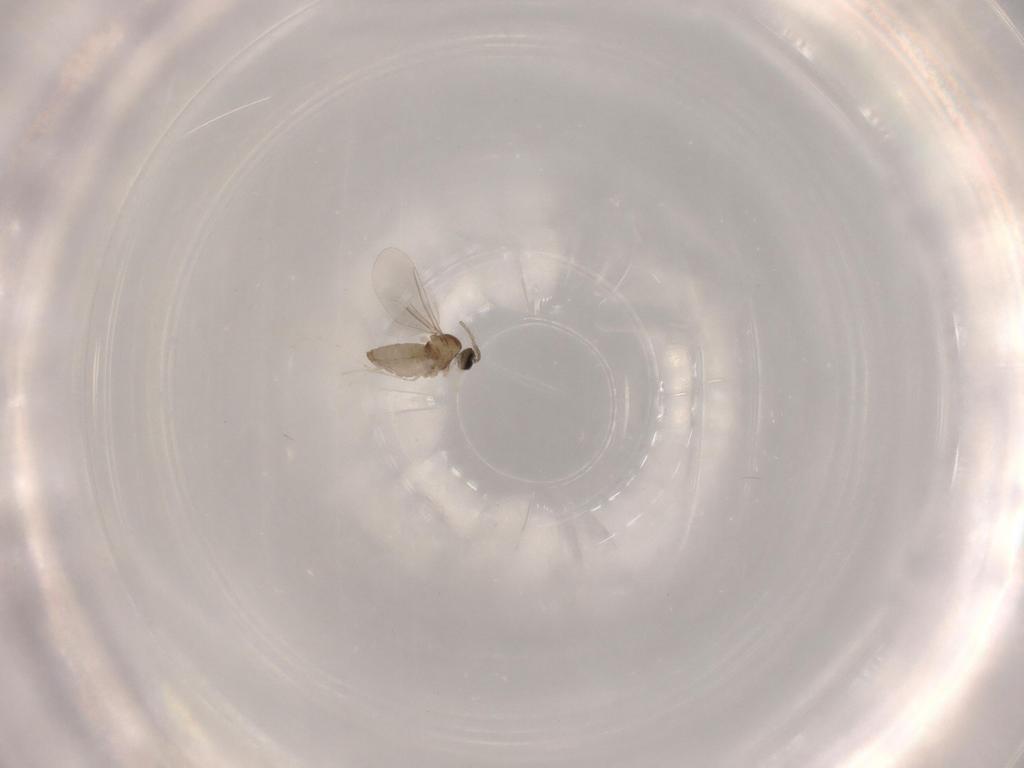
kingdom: Animalia
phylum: Arthropoda
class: Insecta
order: Diptera
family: Cecidomyiidae
